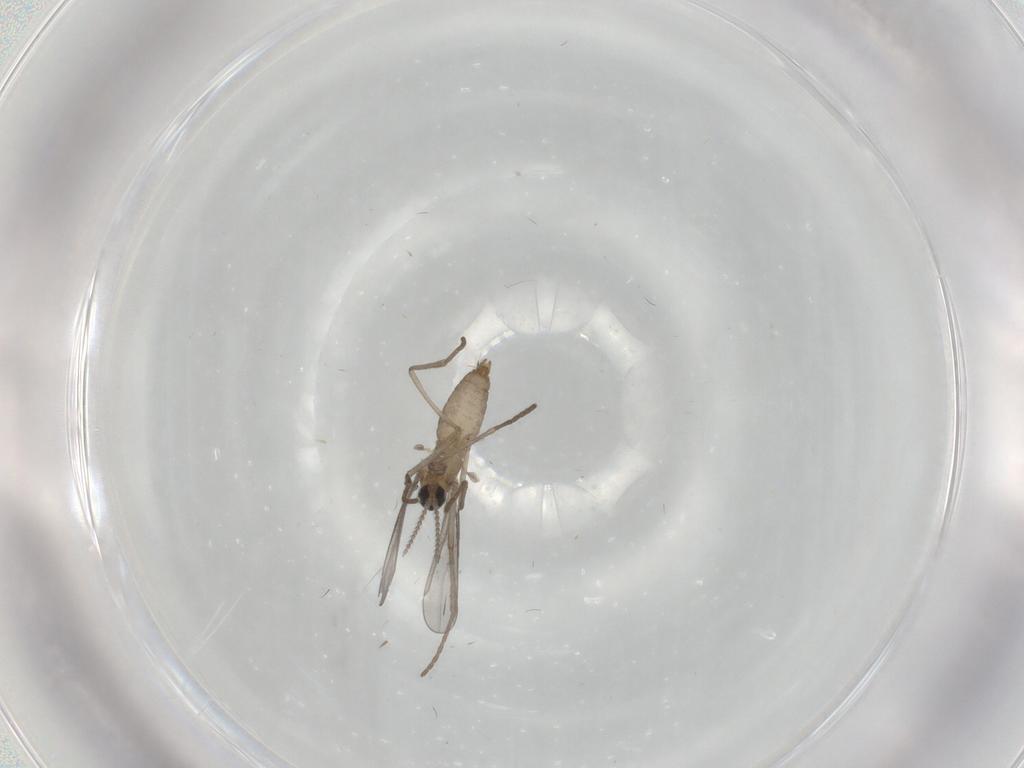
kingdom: Animalia
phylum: Arthropoda
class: Insecta
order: Diptera
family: Cecidomyiidae
